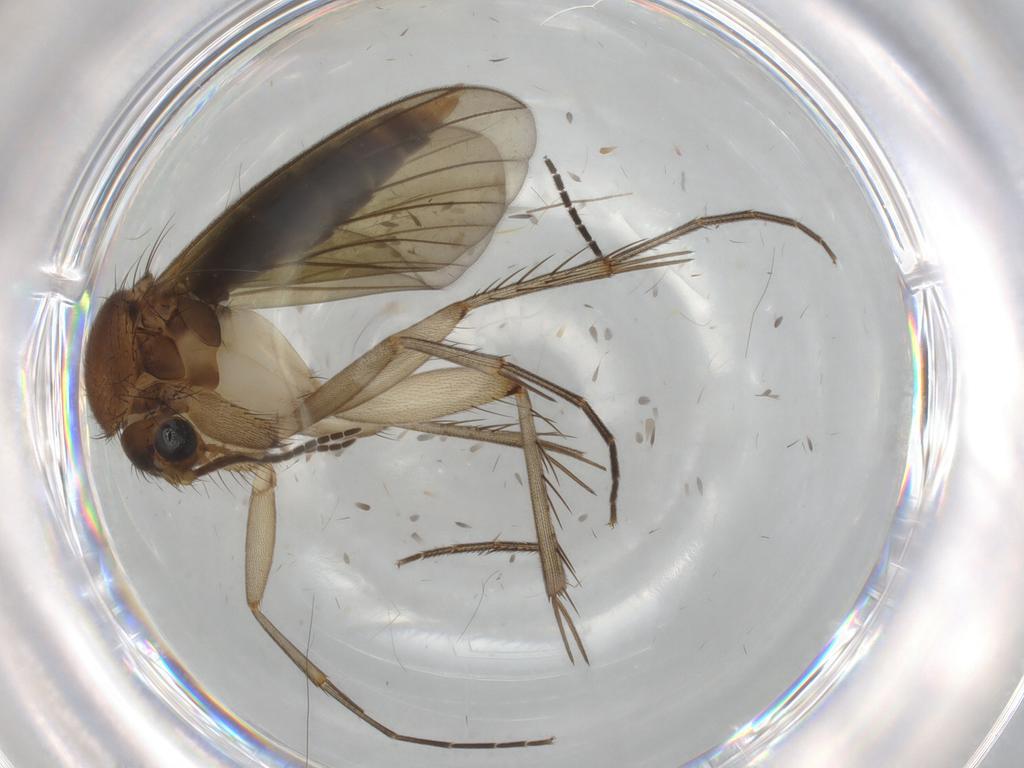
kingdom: Animalia
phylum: Arthropoda
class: Insecta
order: Diptera
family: Mycetophilidae
